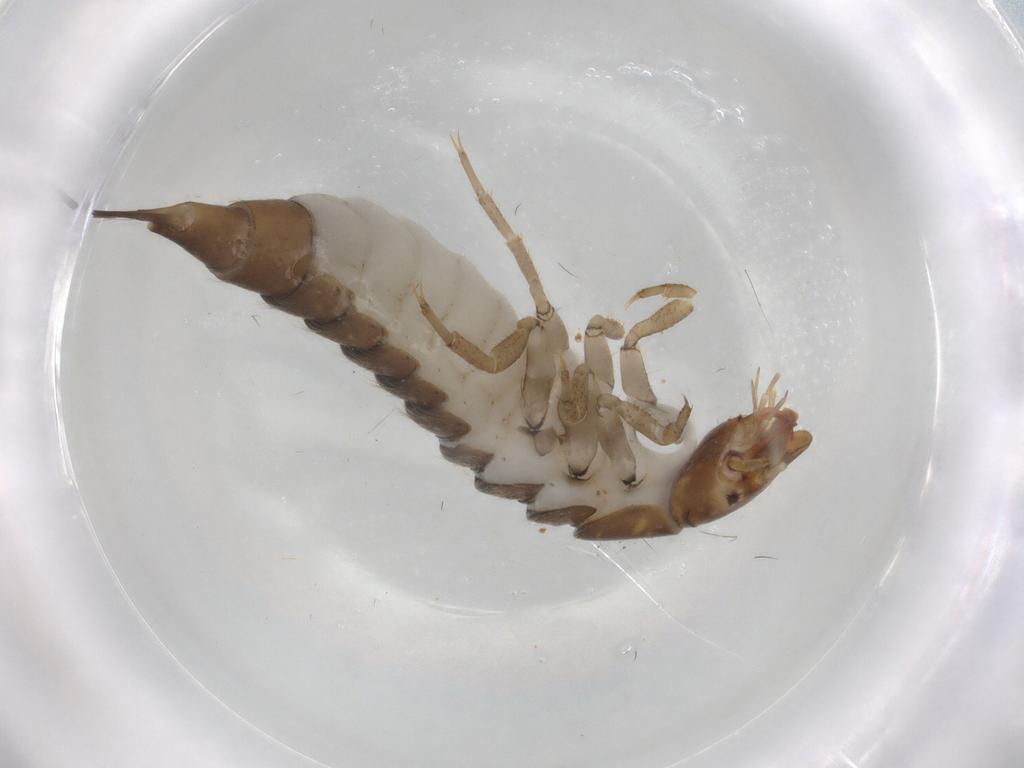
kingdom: Animalia
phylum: Arthropoda
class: Insecta
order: Coleoptera
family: Dytiscidae
